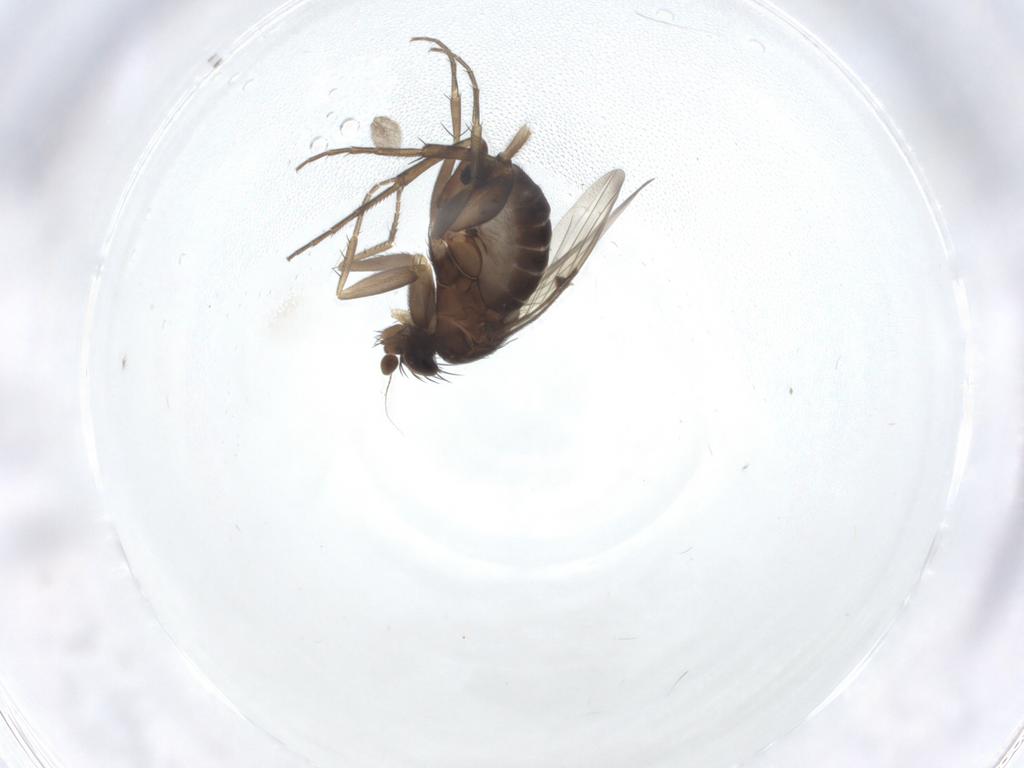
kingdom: Animalia
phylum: Arthropoda
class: Insecta
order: Diptera
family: Phoridae
